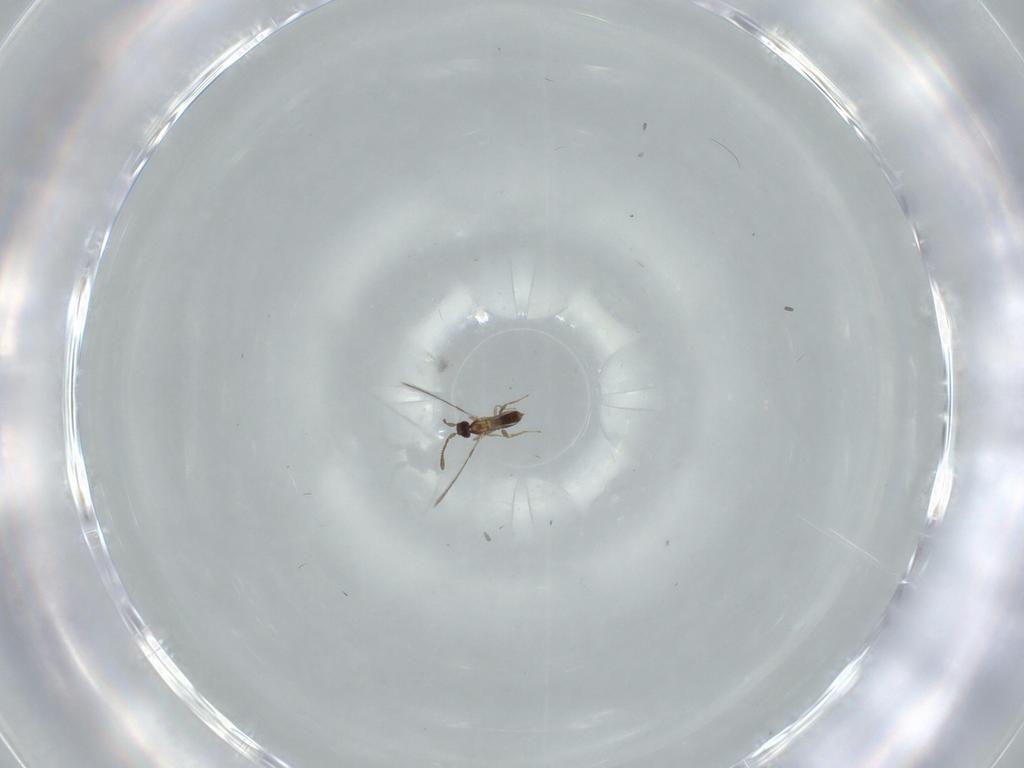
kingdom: Animalia
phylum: Arthropoda
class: Insecta
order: Hymenoptera
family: Mymaridae
